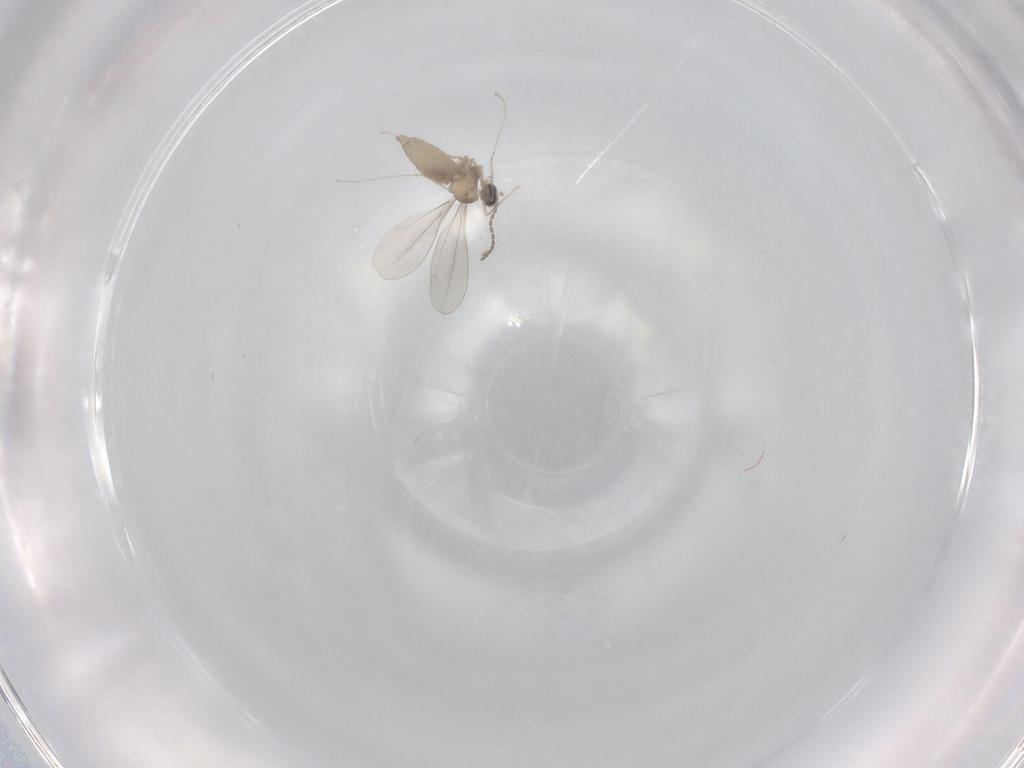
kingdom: Animalia
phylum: Arthropoda
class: Insecta
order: Diptera
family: Cecidomyiidae
